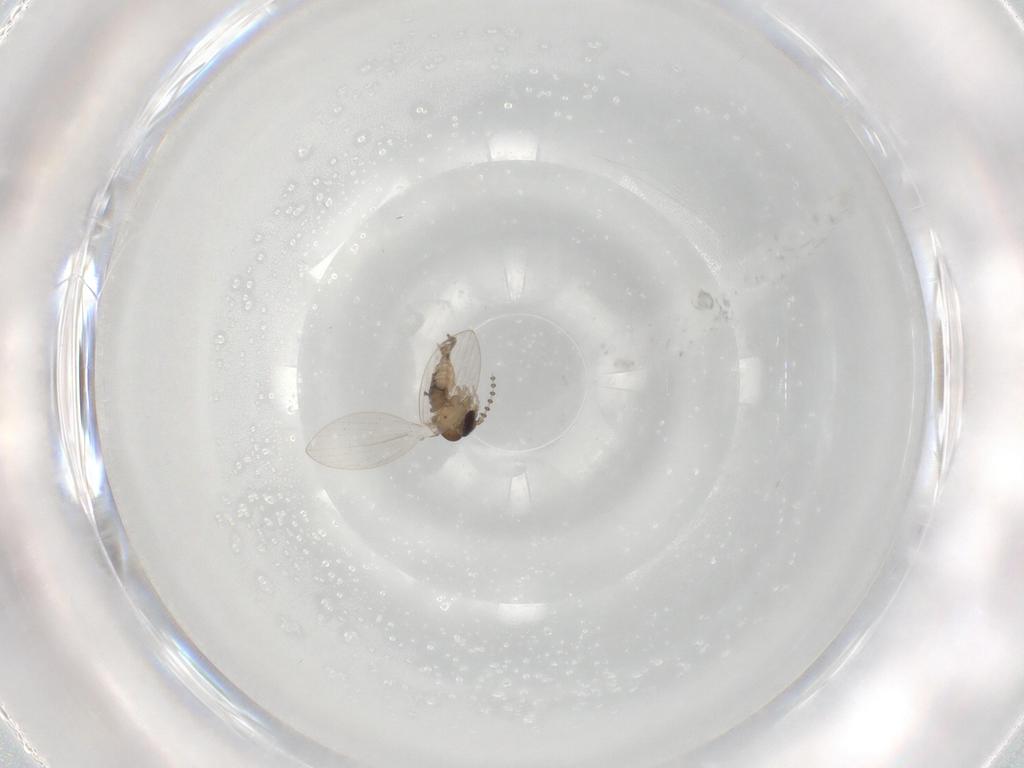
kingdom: Animalia
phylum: Arthropoda
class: Insecta
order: Diptera
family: Psychodidae
